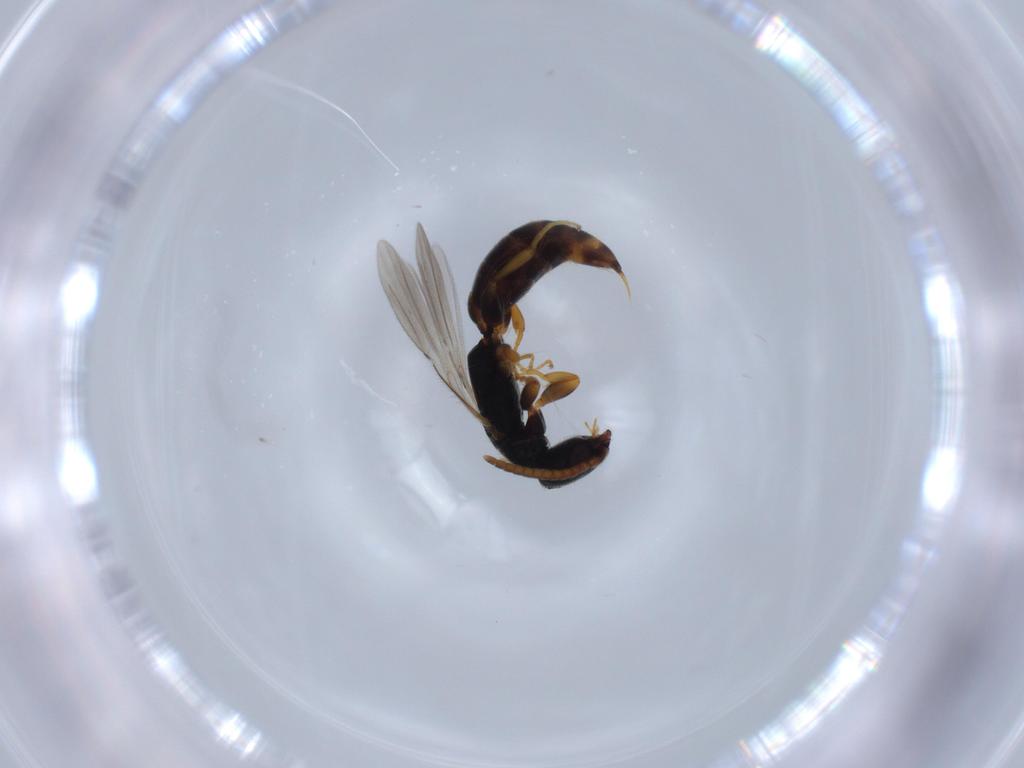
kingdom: Animalia
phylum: Arthropoda
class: Insecta
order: Hymenoptera
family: Bethylidae
